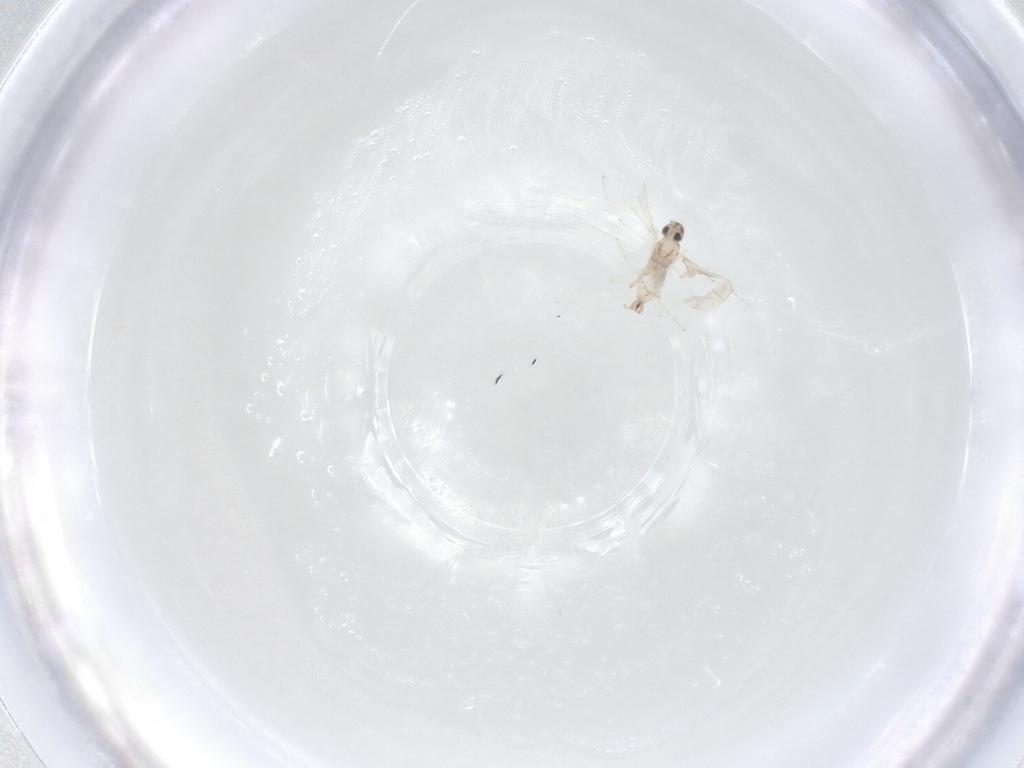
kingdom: Animalia
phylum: Arthropoda
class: Insecta
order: Diptera
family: Cecidomyiidae
